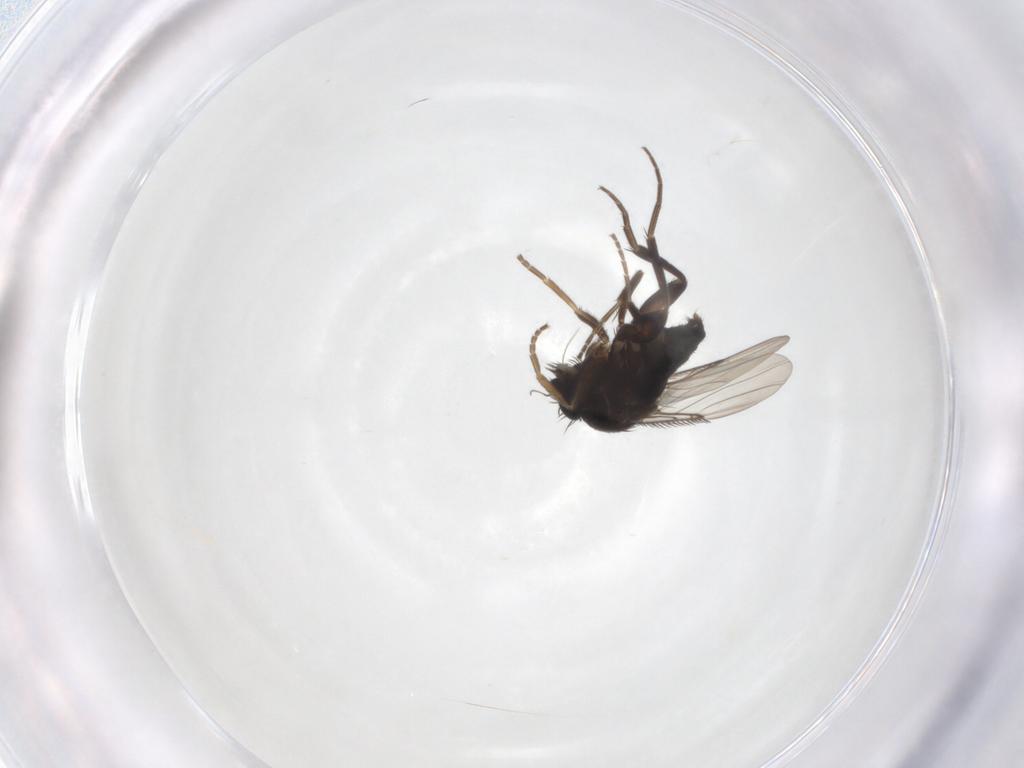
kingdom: Animalia
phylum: Arthropoda
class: Insecta
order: Diptera
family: Phoridae
